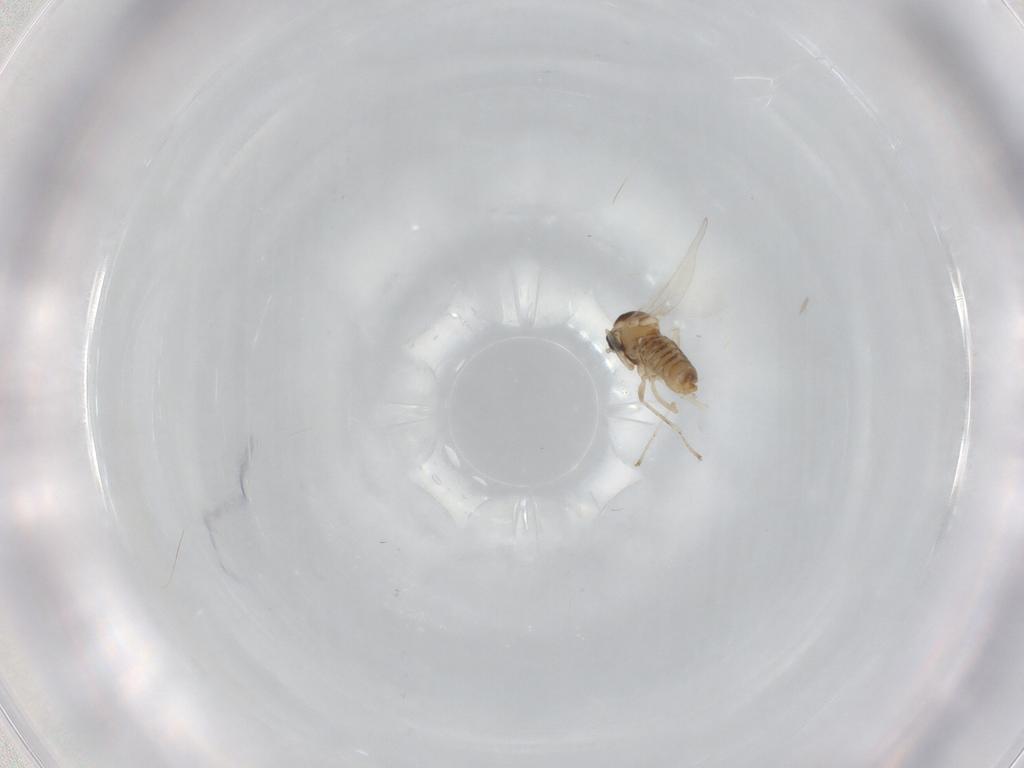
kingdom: Animalia
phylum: Arthropoda
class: Insecta
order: Diptera
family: Cecidomyiidae
